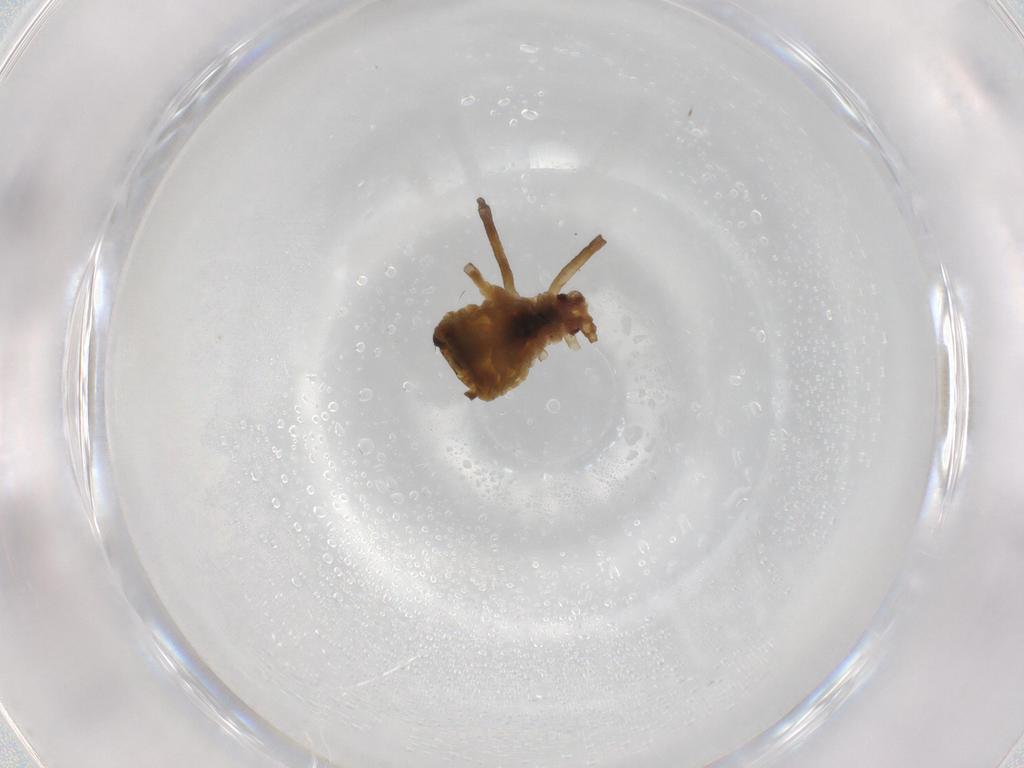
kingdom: Animalia
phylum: Arthropoda
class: Insecta
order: Hemiptera
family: Aphididae
